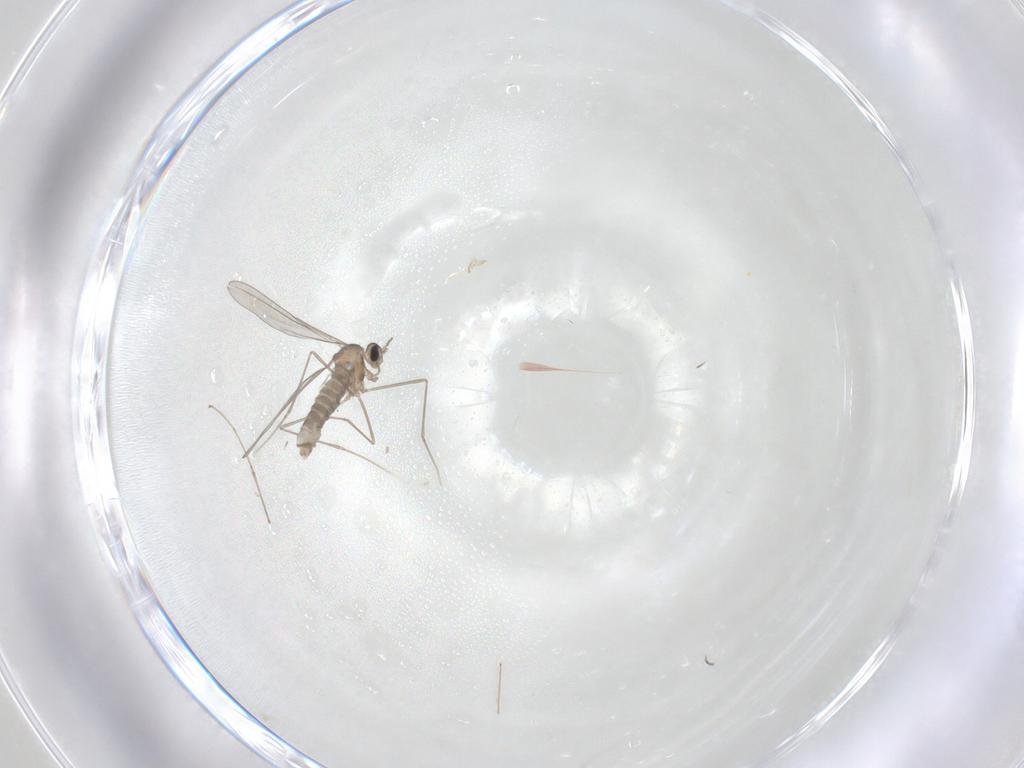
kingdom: Animalia
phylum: Arthropoda
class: Insecta
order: Diptera
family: Cecidomyiidae
